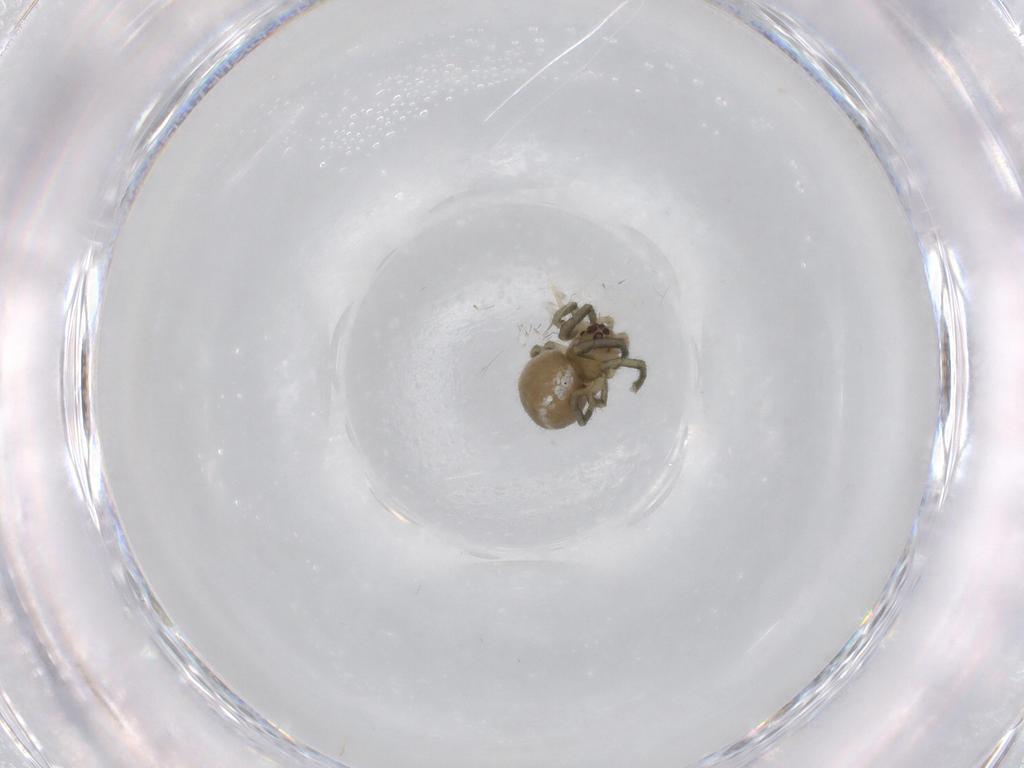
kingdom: Animalia
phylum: Arthropoda
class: Arachnida
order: Araneae
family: Tetragnathidae
